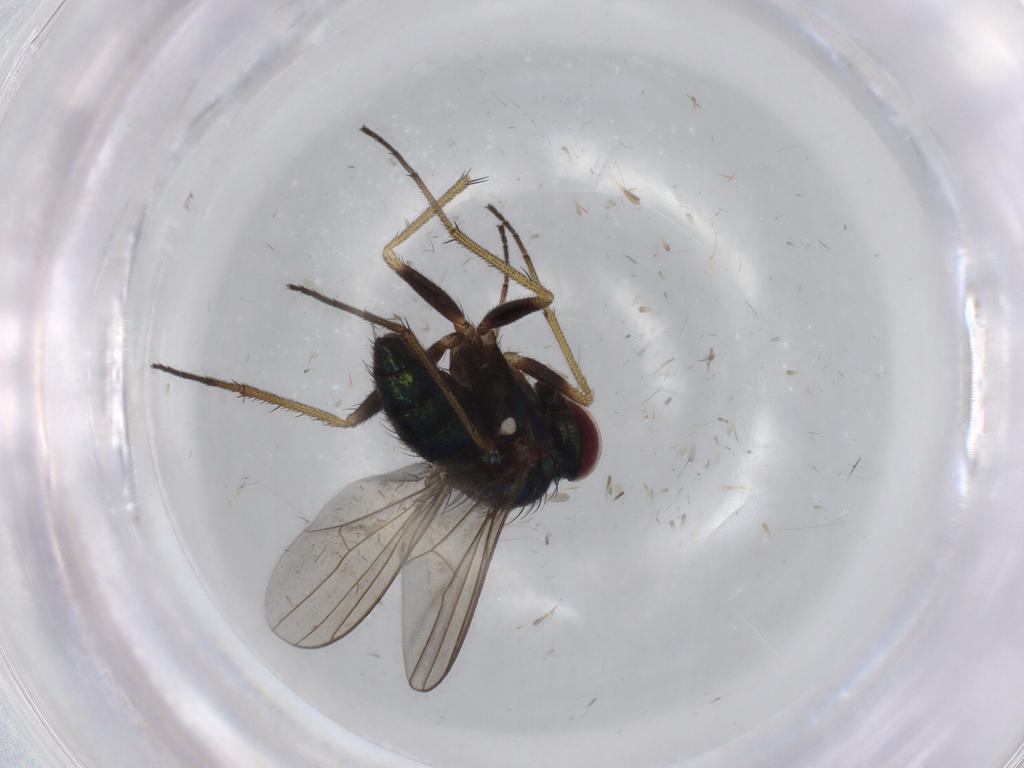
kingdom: Animalia
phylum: Arthropoda
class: Insecta
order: Diptera
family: Dolichopodidae
